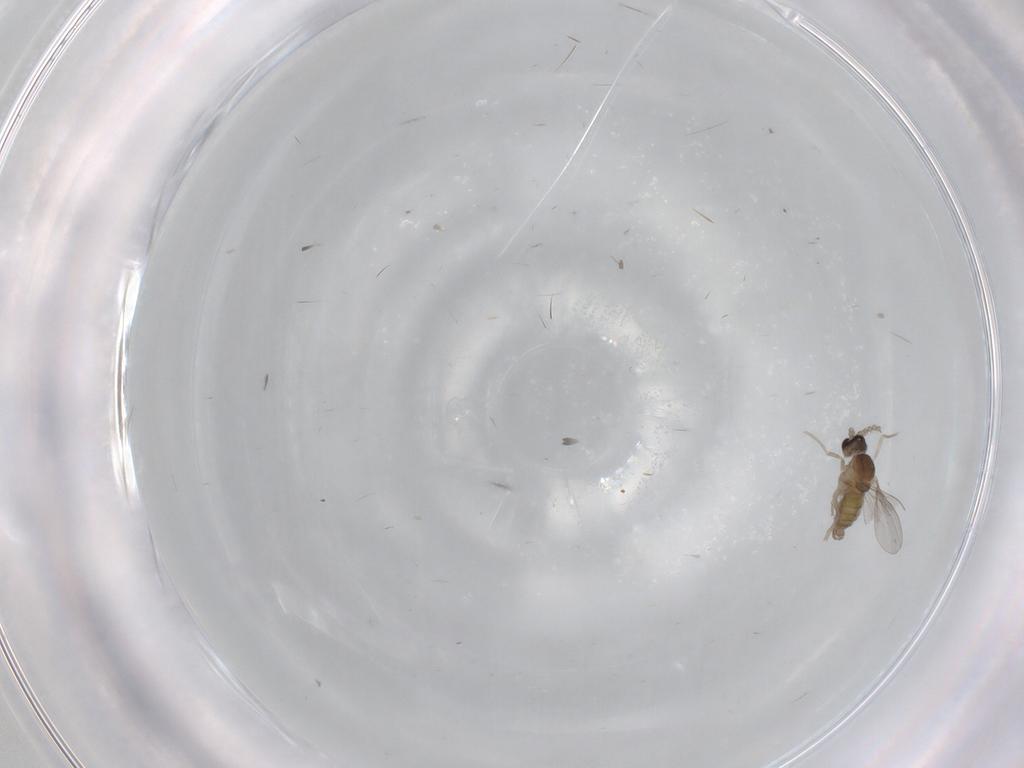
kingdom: Animalia
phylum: Arthropoda
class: Insecta
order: Diptera
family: Cecidomyiidae
